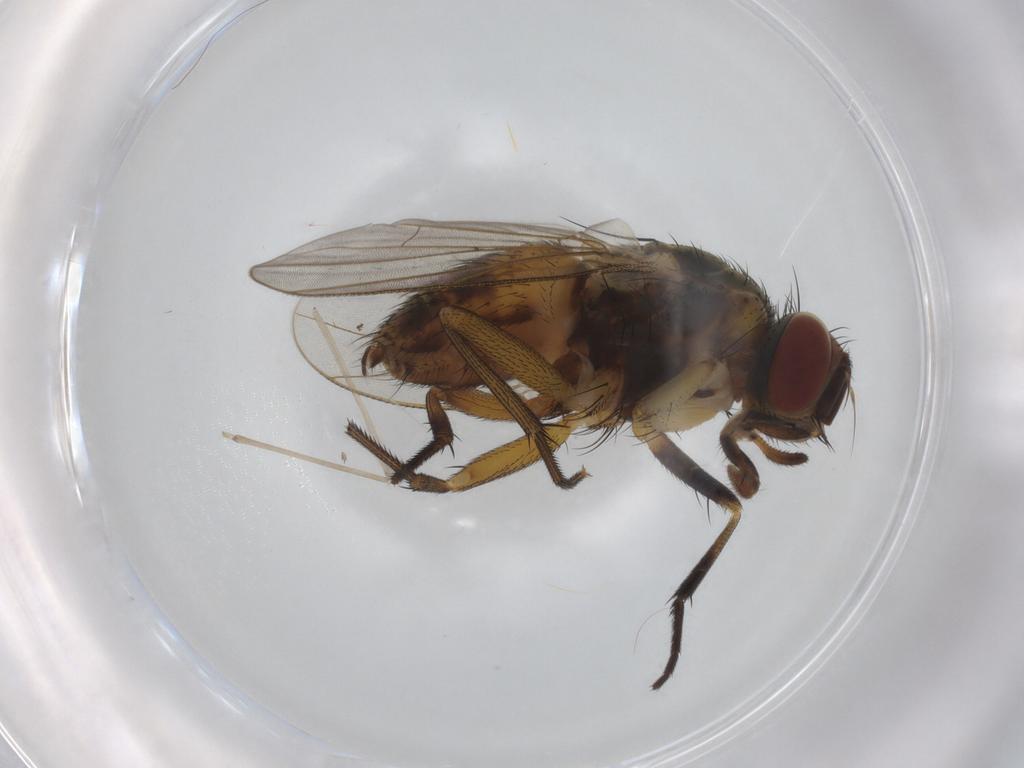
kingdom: Animalia
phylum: Arthropoda
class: Insecta
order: Diptera
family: Muscidae
